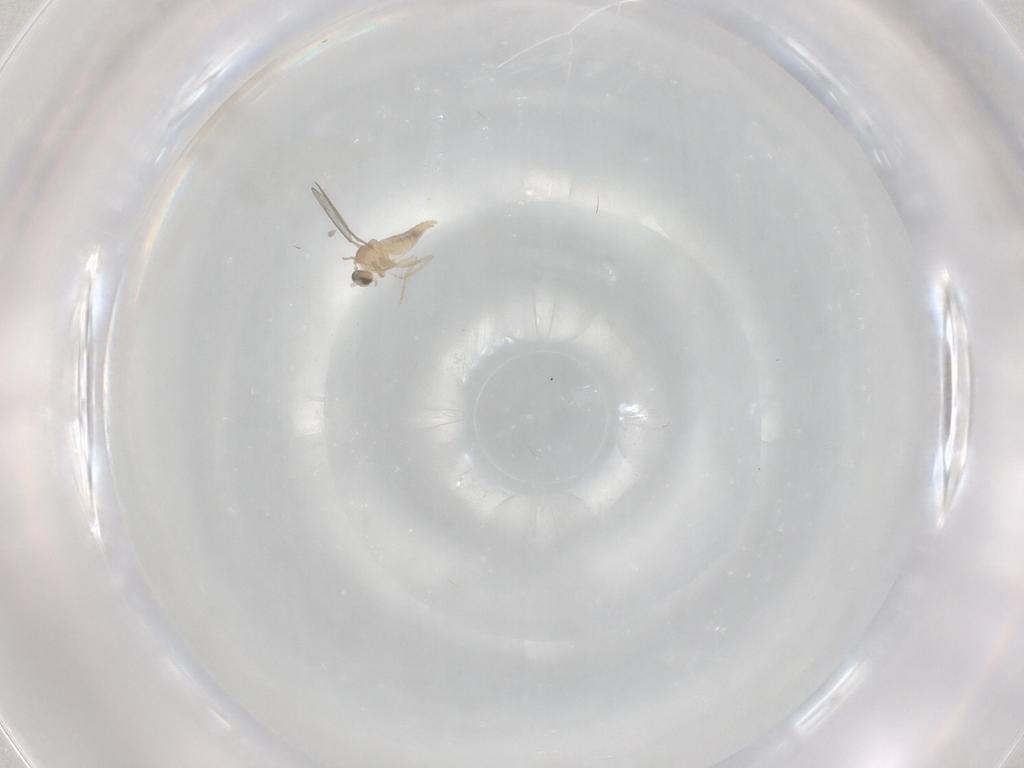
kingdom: Animalia
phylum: Arthropoda
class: Insecta
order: Diptera
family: Cecidomyiidae
